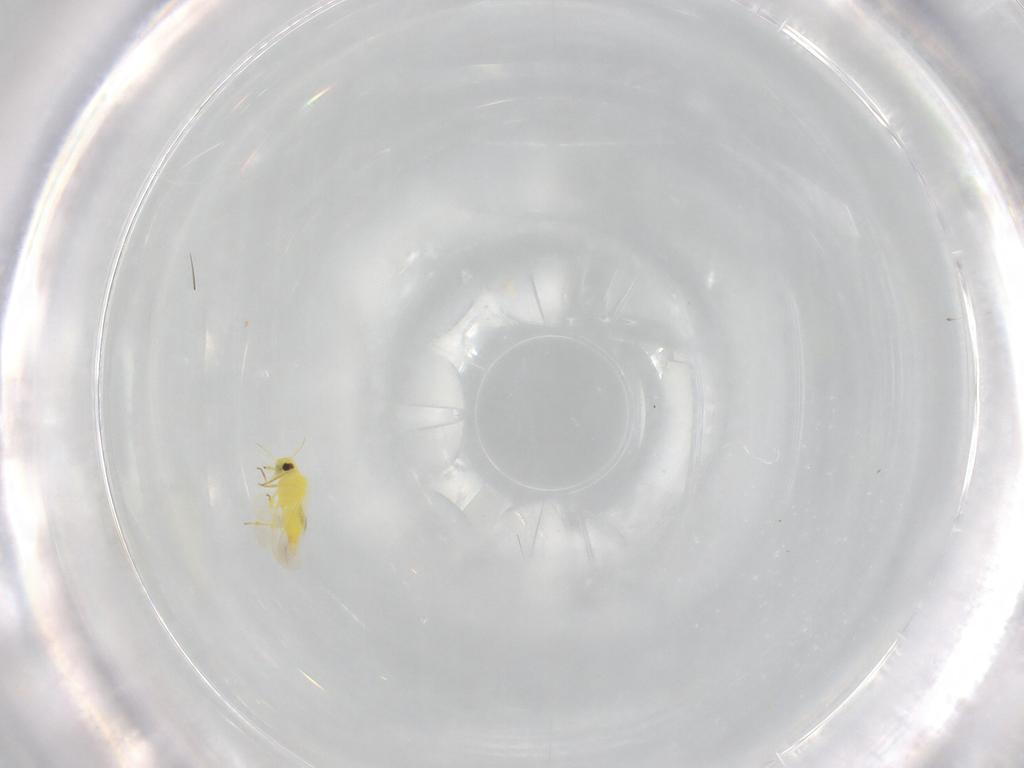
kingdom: Animalia
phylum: Arthropoda
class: Insecta
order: Hemiptera
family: Aleyrodidae
